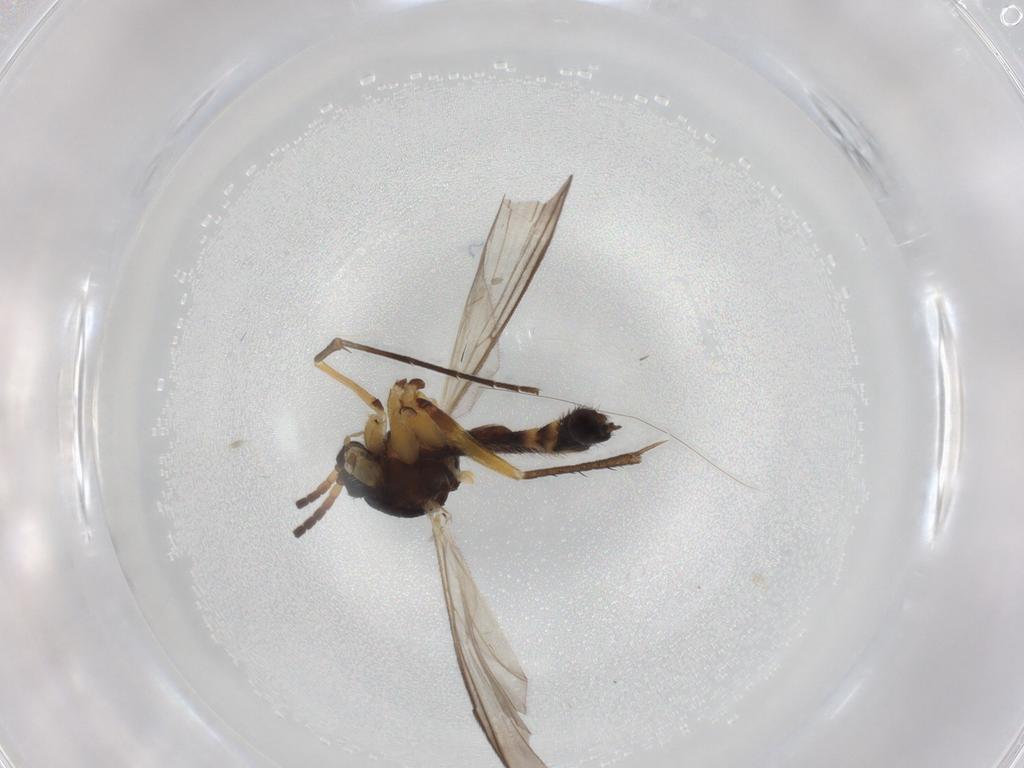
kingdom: Animalia
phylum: Arthropoda
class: Insecta
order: Diptera
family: Mycetophilidae
